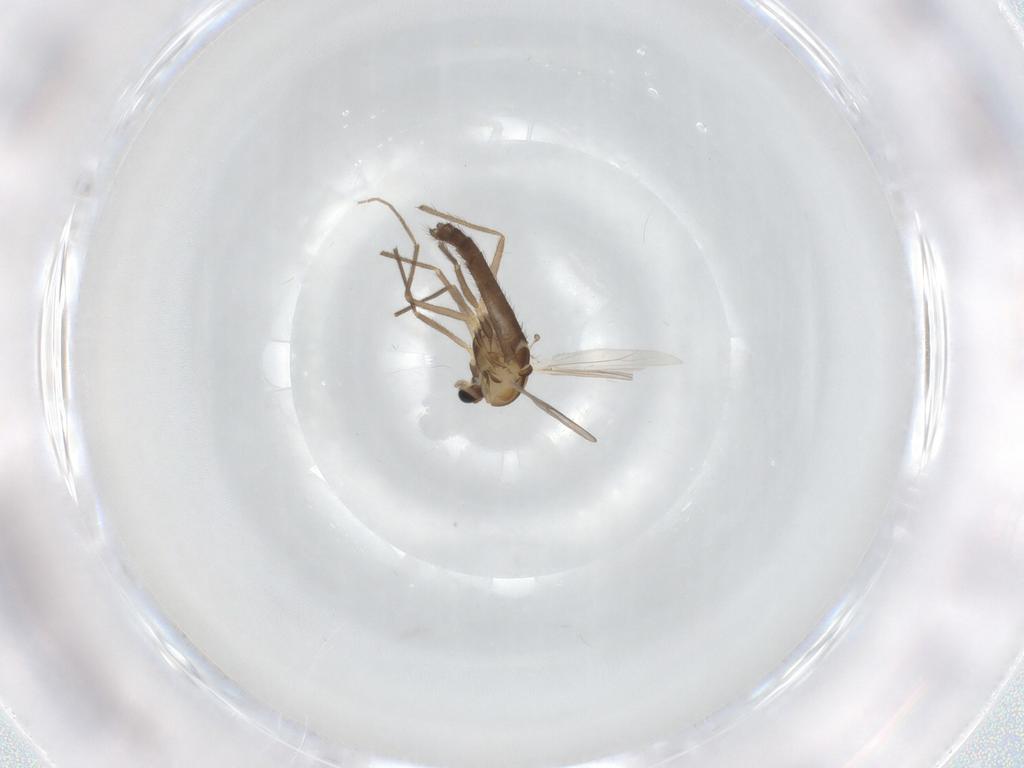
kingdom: Animalia
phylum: Arthropoda
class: Insecta
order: Diptera
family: Chironomidae
